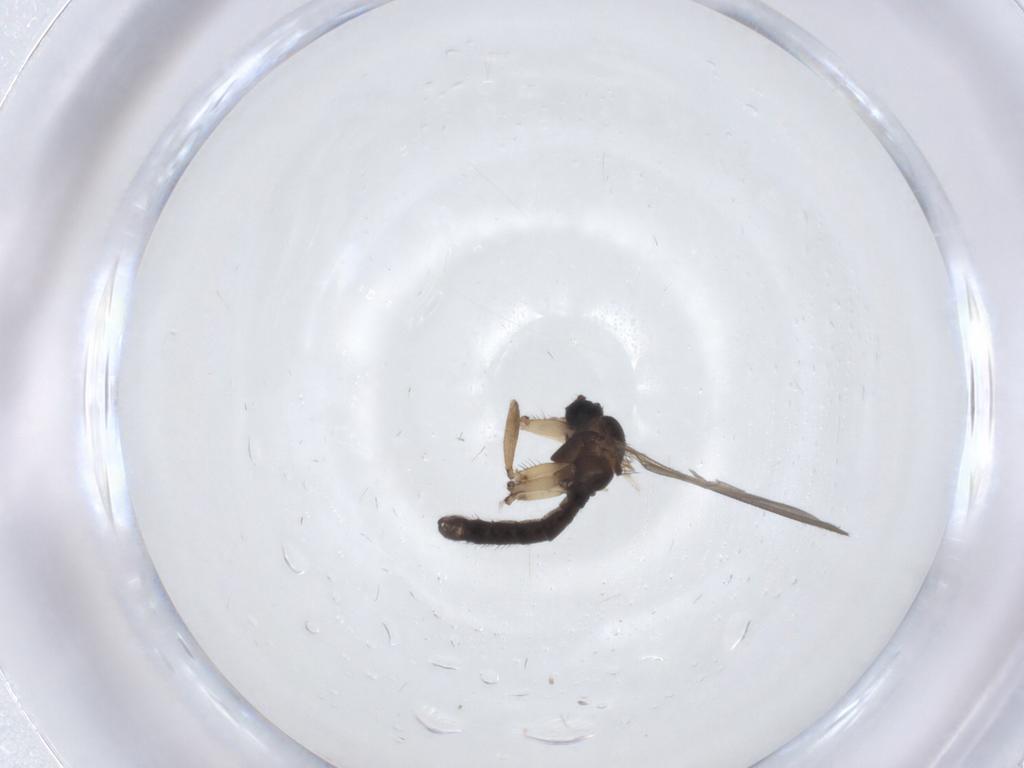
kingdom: Animalia
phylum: Arthropoda
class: Insecta
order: Diptera
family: Sciaridae
